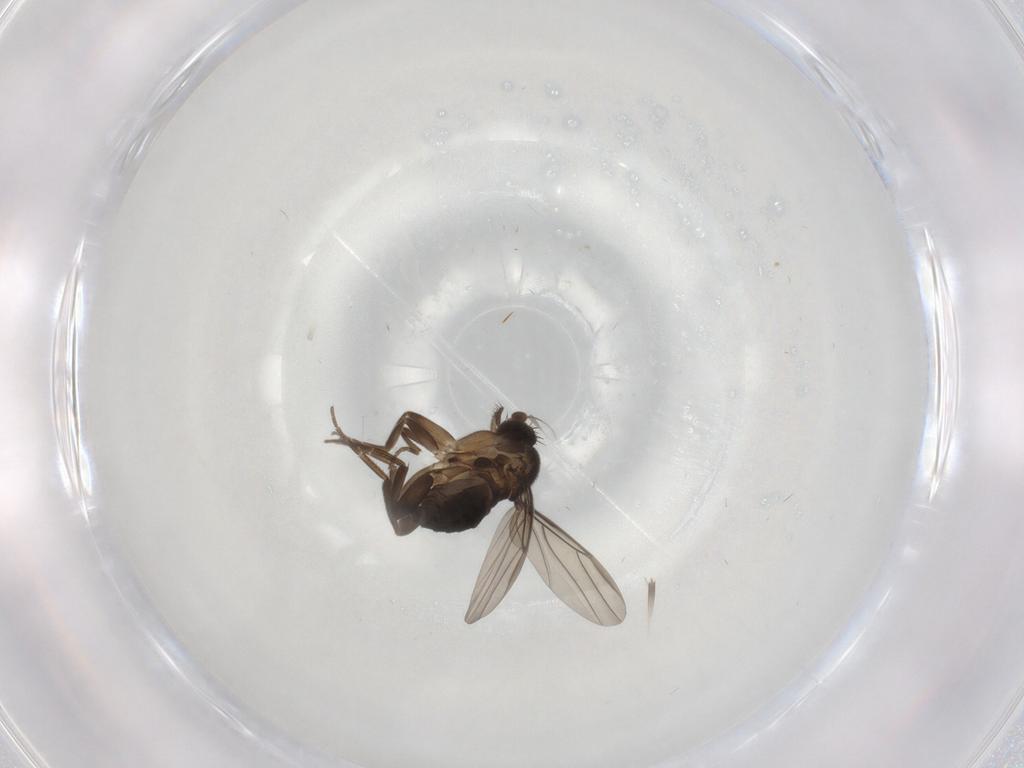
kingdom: Animalia
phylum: Arthropoda
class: Insecta
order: Diptera
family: Phoridae
